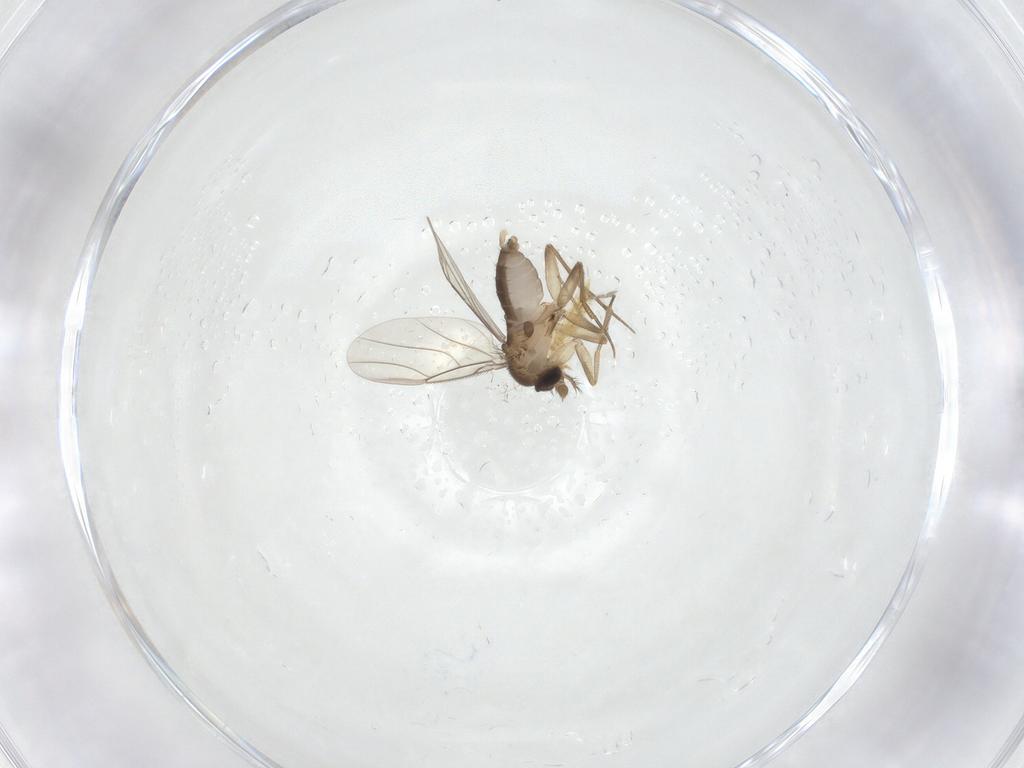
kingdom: Animalia
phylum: Arthropoda
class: Insecta
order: Diptera
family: Ceratopogonidae
